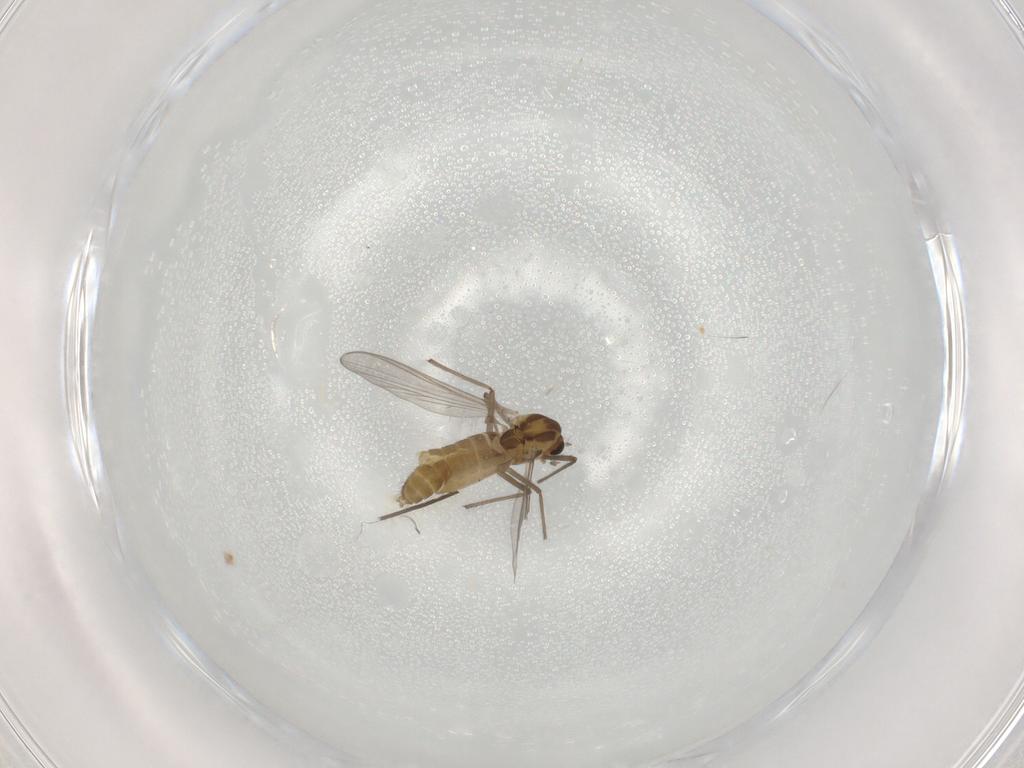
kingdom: Animalia
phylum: Arthropoda
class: Insecta
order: Diptera
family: Chironomidae
